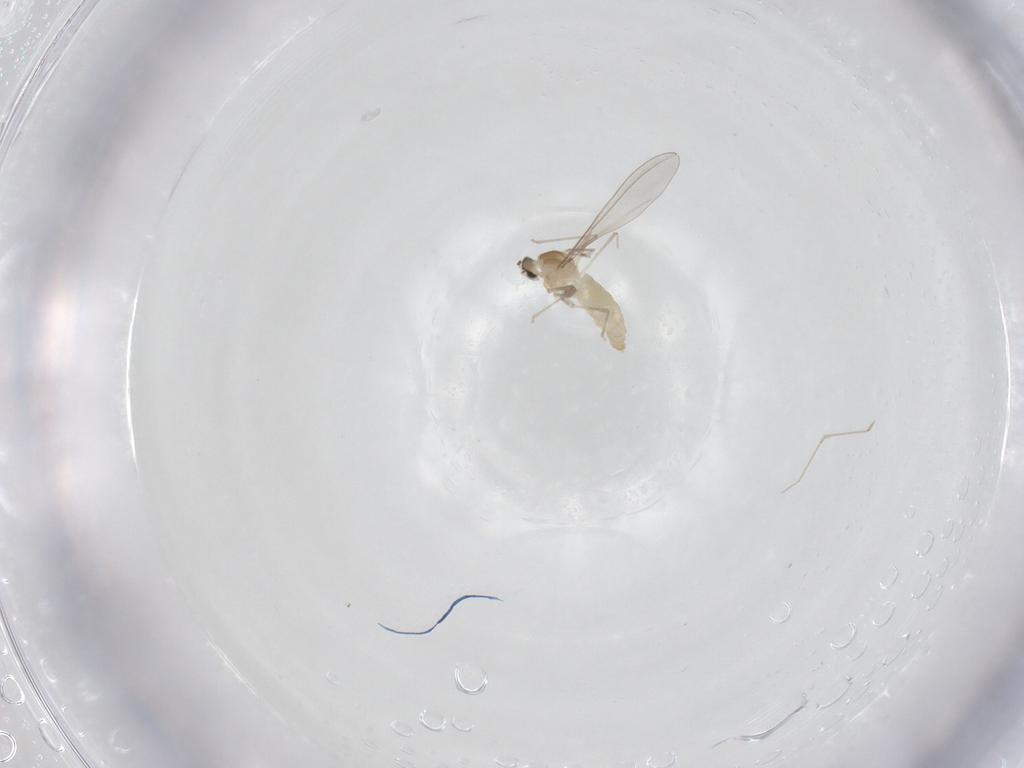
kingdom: Animalia
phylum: Arthropoda
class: Insecta
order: Diptera
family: Cecidomyiidae
